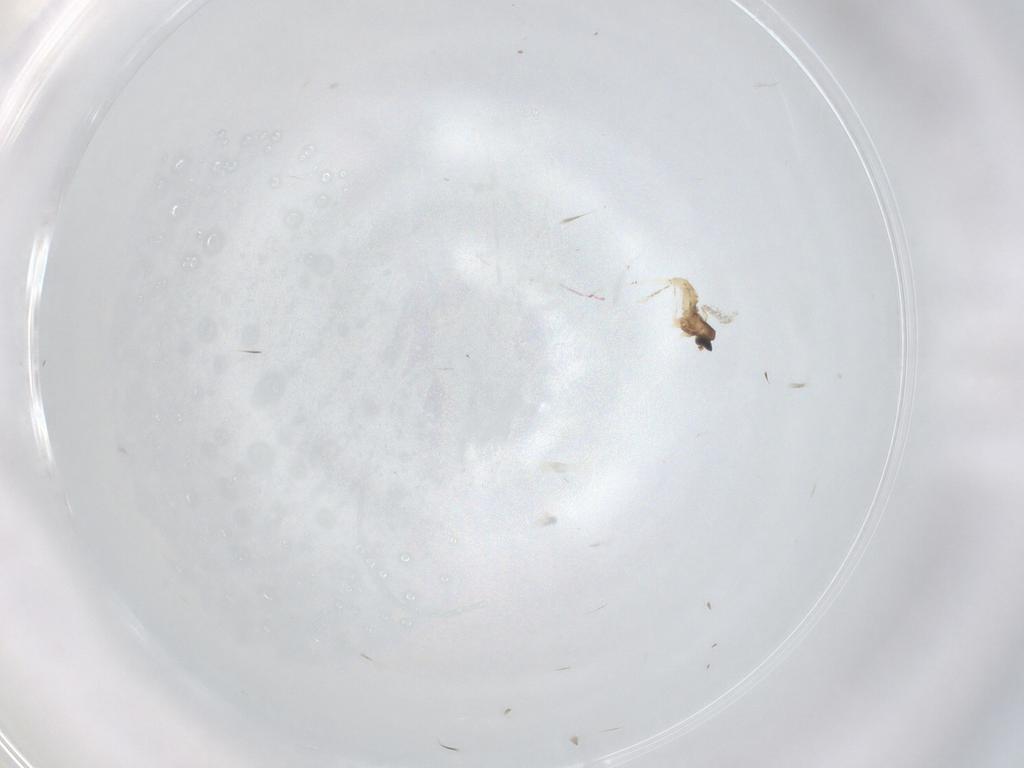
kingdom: Animalia
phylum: Arthropoda
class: Insecta
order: Diptera
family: Cecidomyiidae
